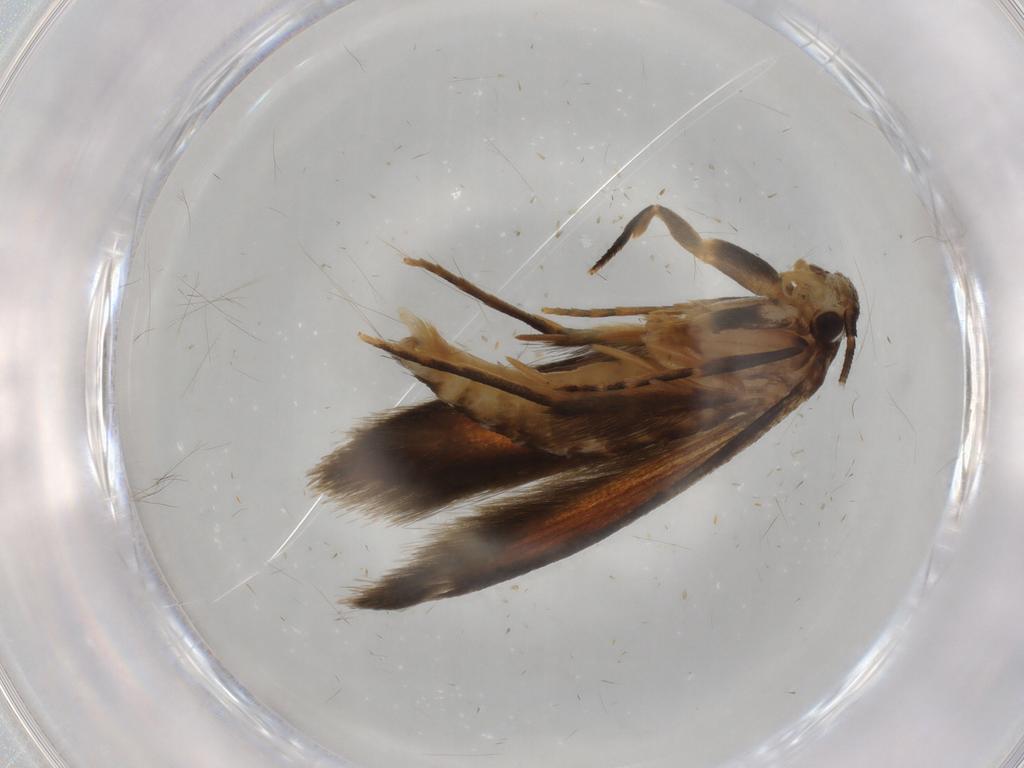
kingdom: Animalia
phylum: Arthropoda
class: Insecta
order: Lepidoptera
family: Tineidae
